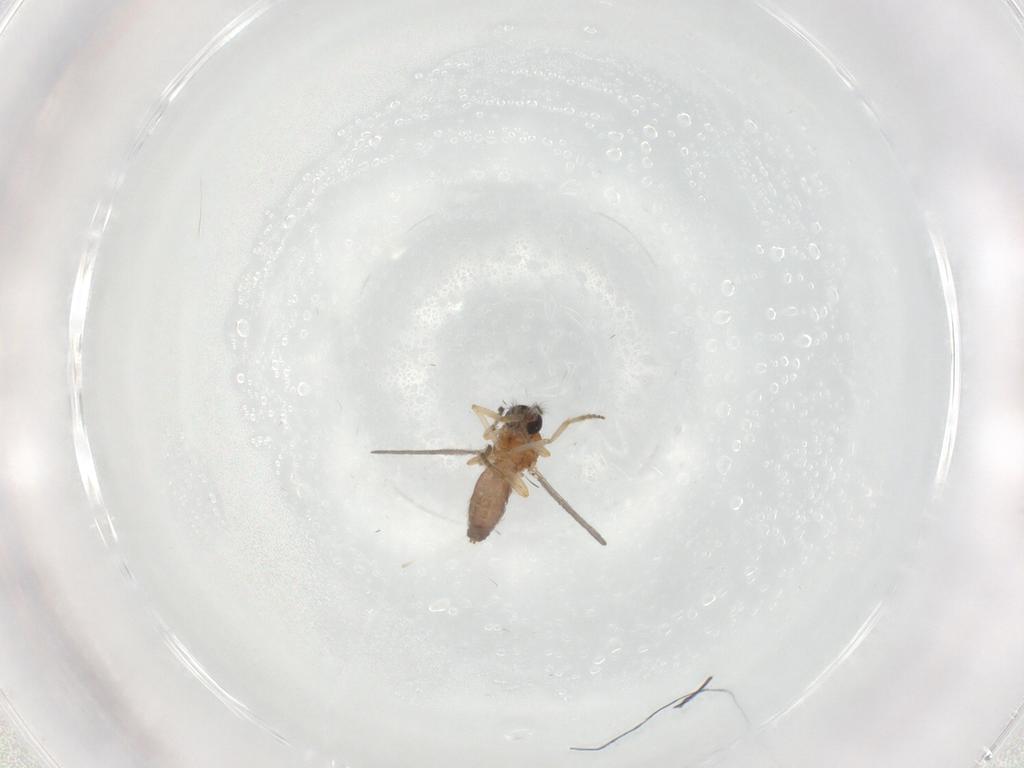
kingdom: Animalia
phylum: Arthropoda
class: Insecta
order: Diptera
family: Ceratopogonidae
